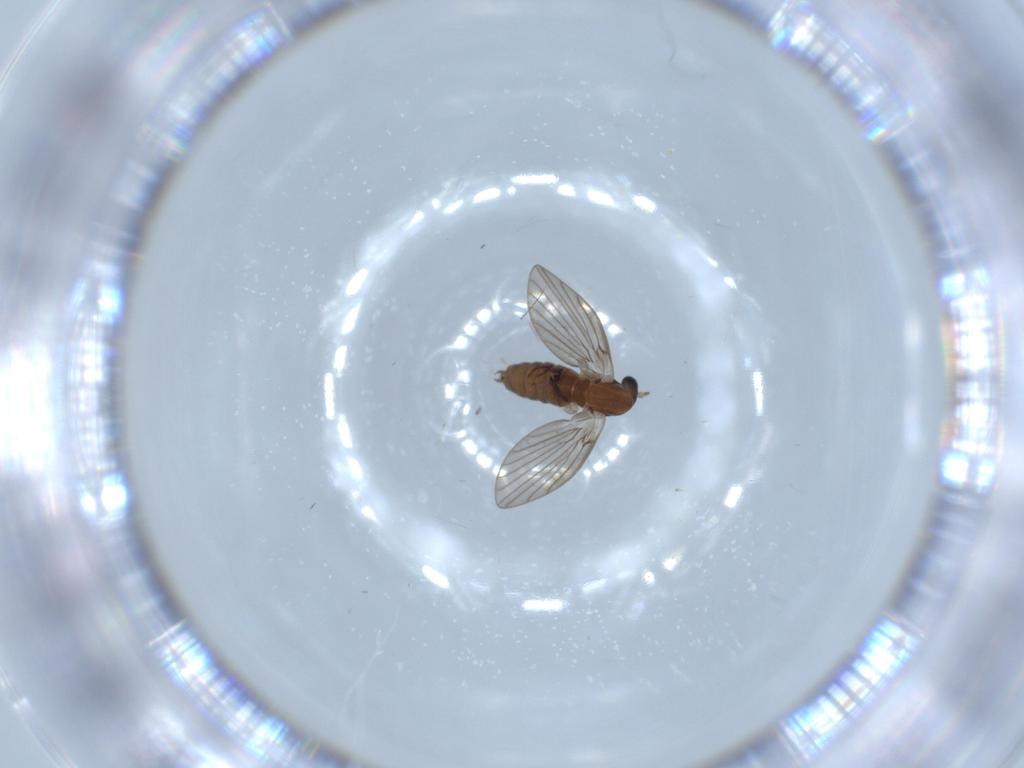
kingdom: Animalia
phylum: Arthropoda
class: Insecta
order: Diptera
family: Psychodidae
